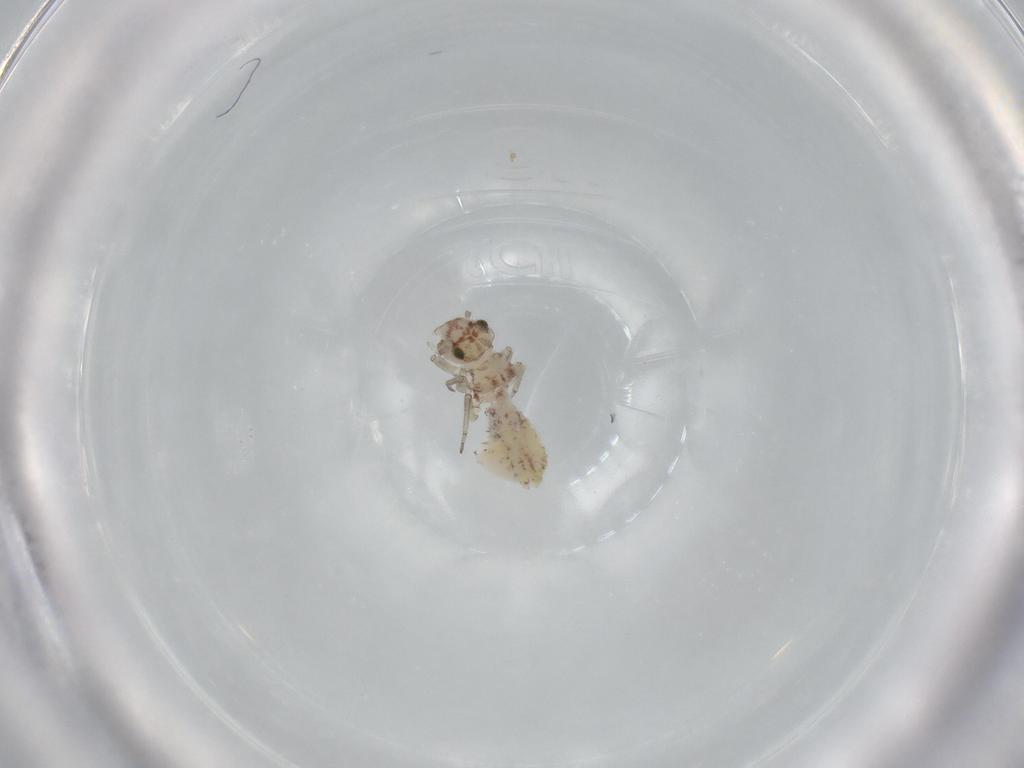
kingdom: Animalia
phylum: Arthropoda
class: Insecta
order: Psocodea
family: Psocidae
